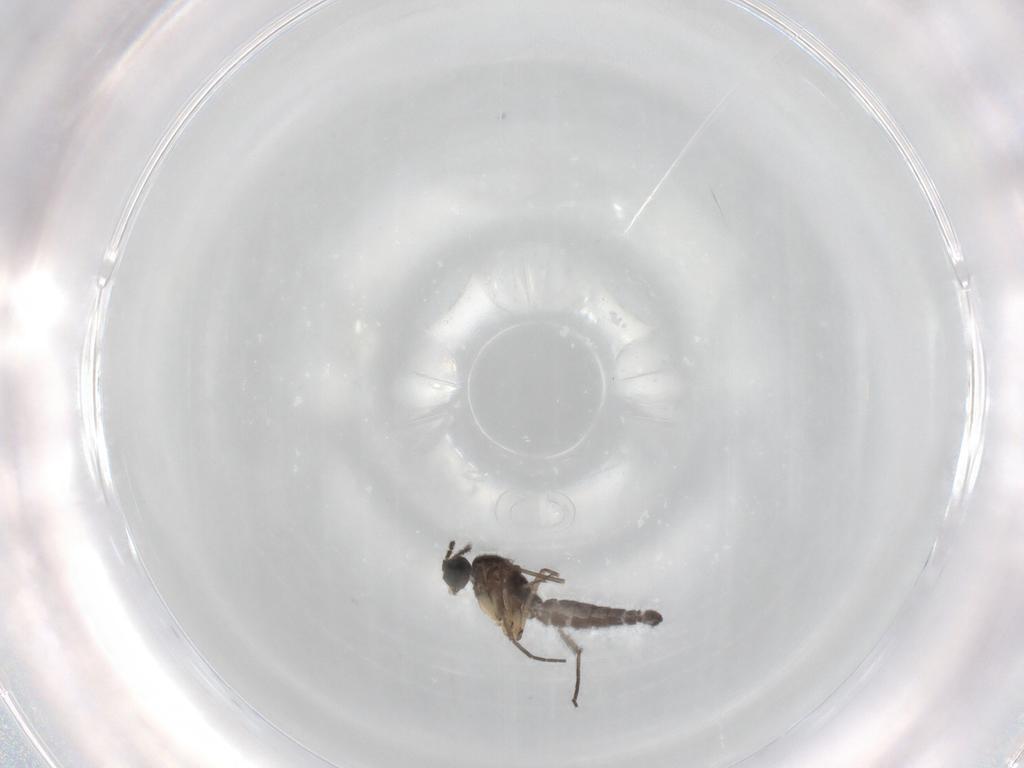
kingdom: Animalia
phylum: Arthropoda
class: Insecta
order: Diptera
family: Sciaridae
